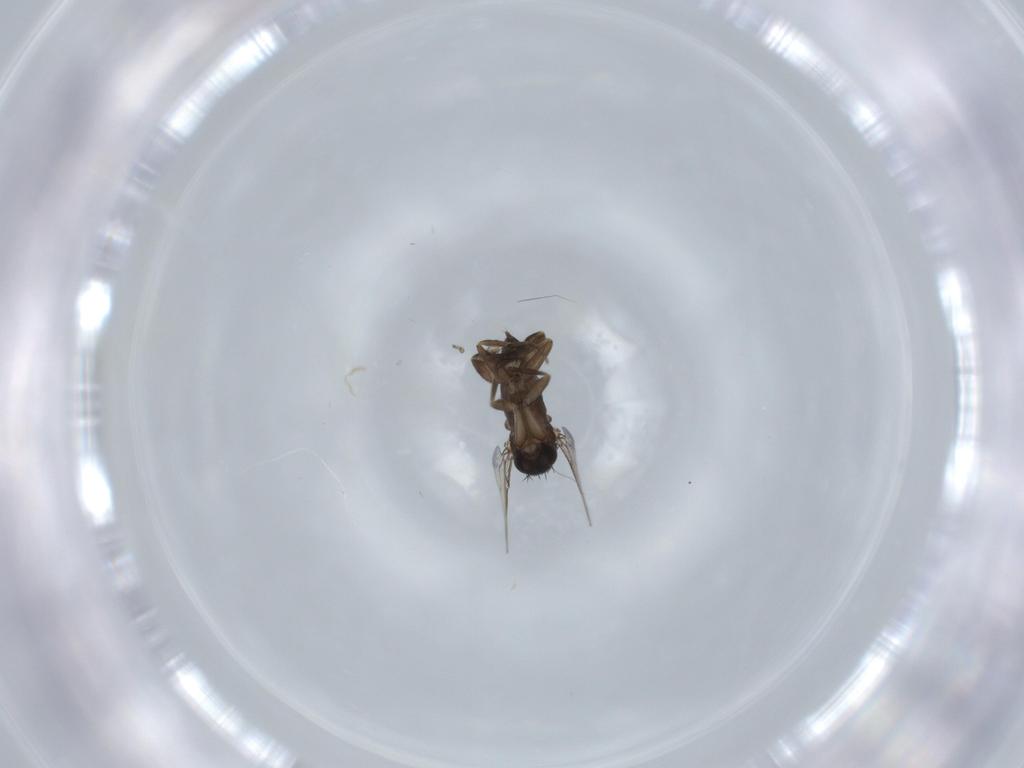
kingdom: Animalia
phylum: Arthropoda
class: Insecta
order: Diptera
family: Phoridae
